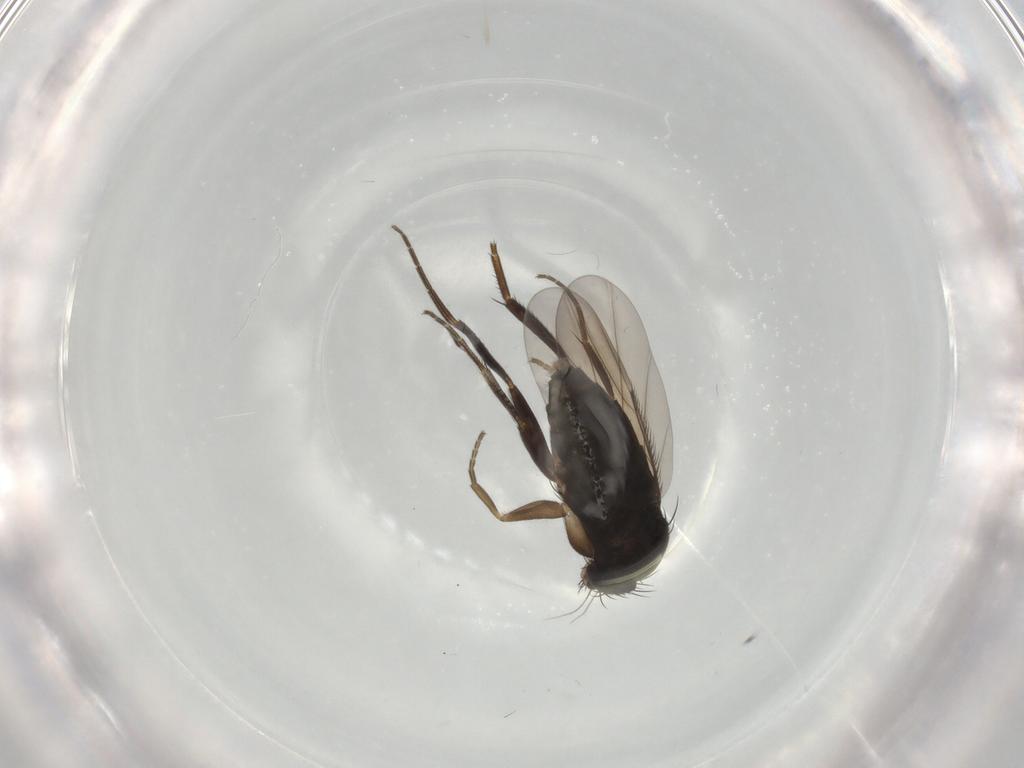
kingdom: Animalia
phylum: Arthropoda
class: Insecta
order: Diptera
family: Phoridae
